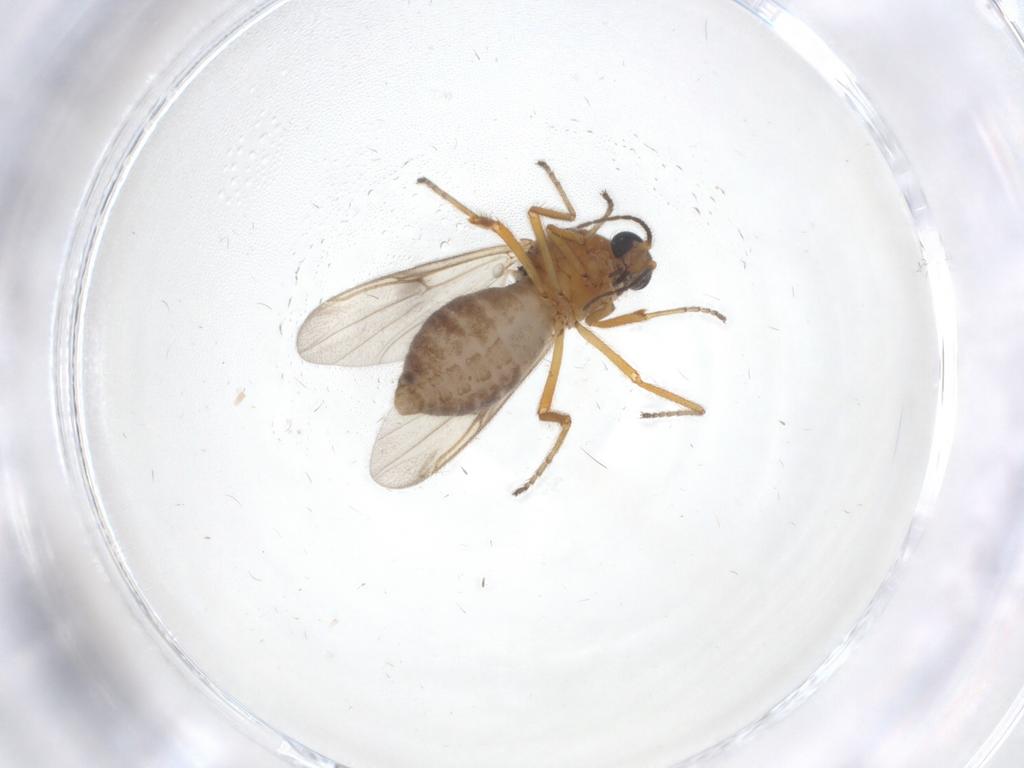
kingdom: Animalia
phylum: Arthropoda
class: Insecta
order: Diptera
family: Ceratopogonidae
